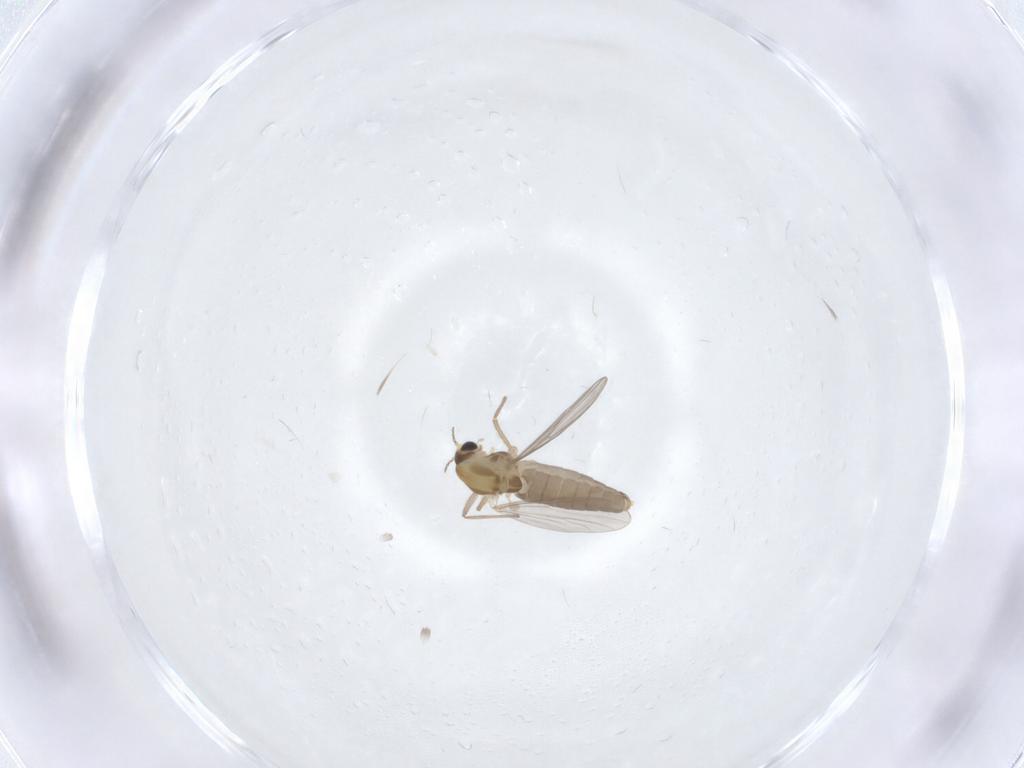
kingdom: Animalia
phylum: Arthropoda
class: Insecta
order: Diptera
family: Chironomidae
